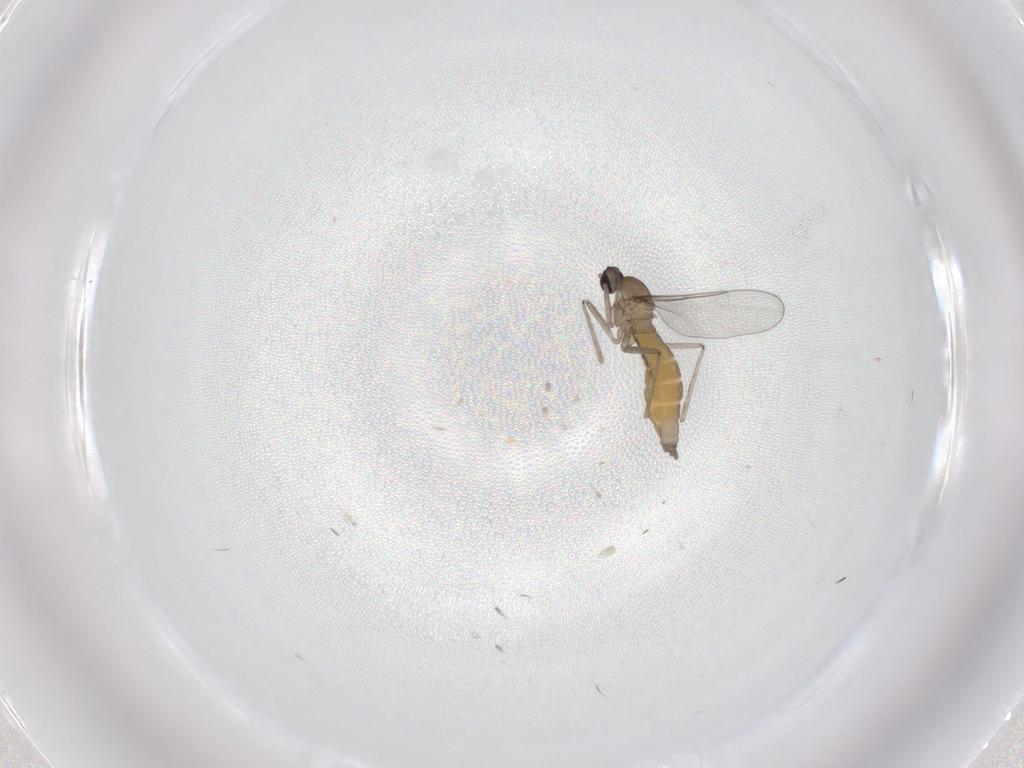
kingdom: Animalia
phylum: Arthropoda
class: Insecta
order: Diptera
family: Cecidomyiidae
